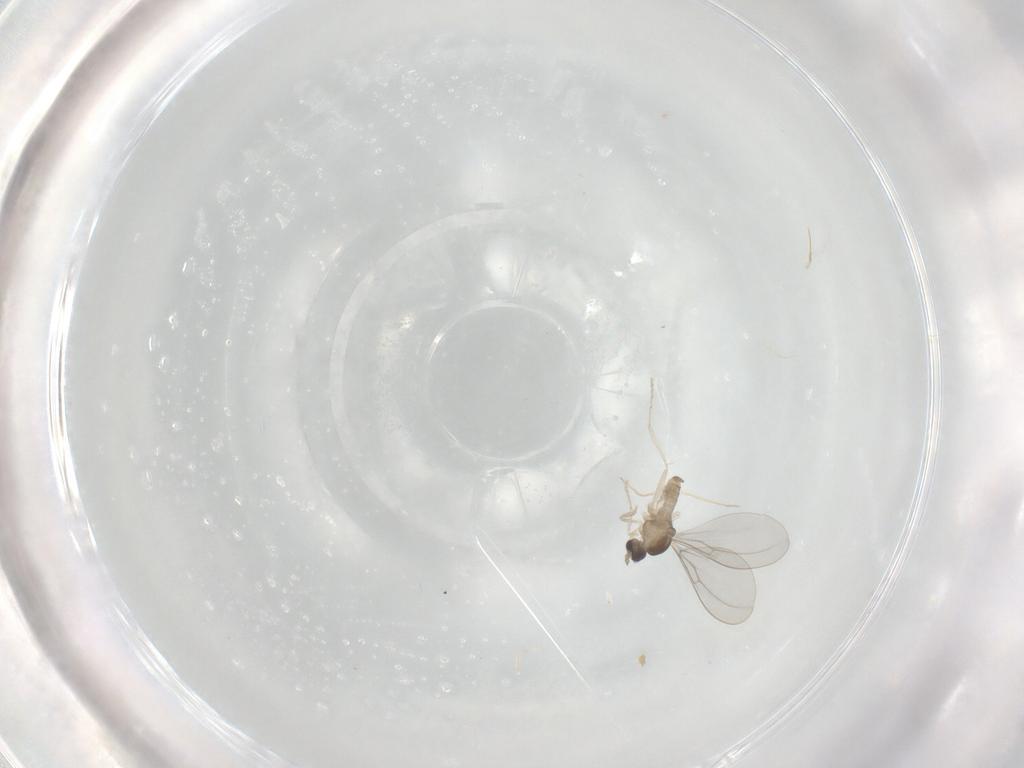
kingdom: Animalia
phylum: Arthropoda
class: Insecta
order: Diptera
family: Cecidomyiidae
